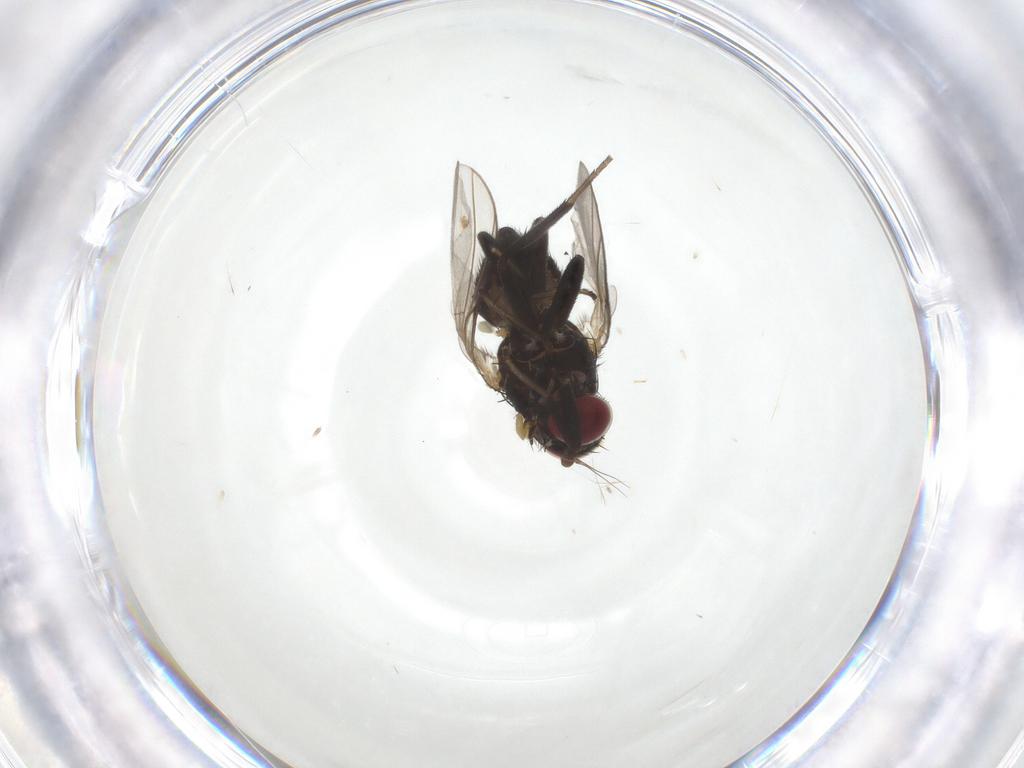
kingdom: Animalia
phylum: Arthropoda
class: Insecta
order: Diptera
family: Agromyzidae
